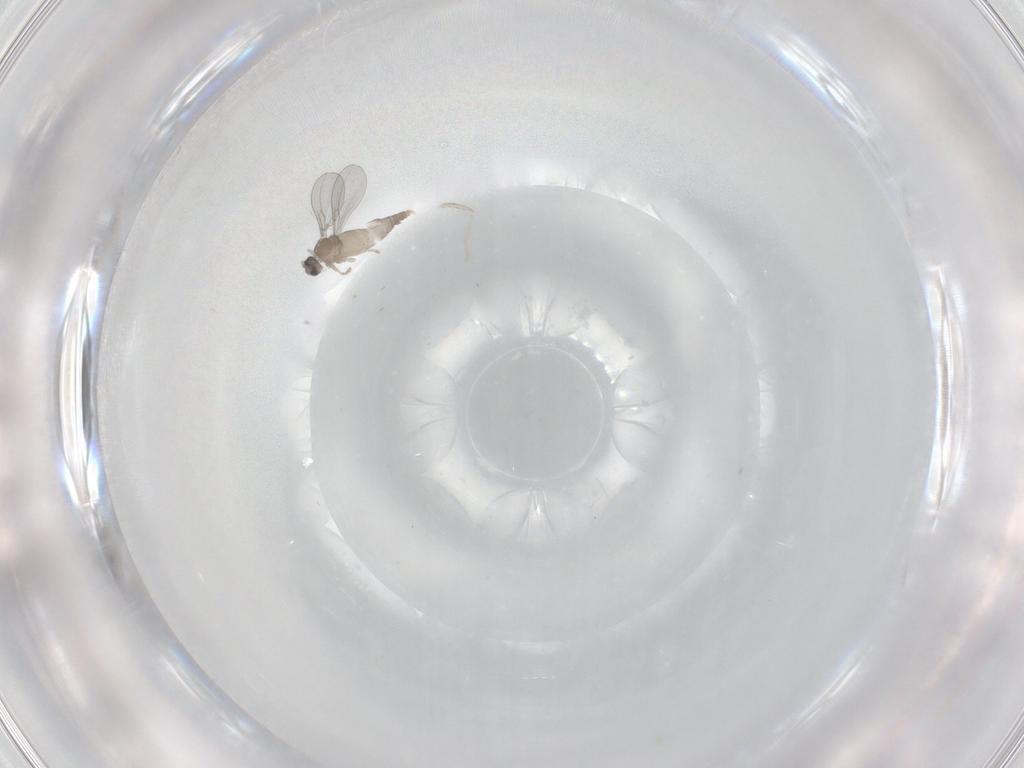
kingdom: Animalia
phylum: Arthropoda
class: Insecta
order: Diptera
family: Cecidomyiidae
